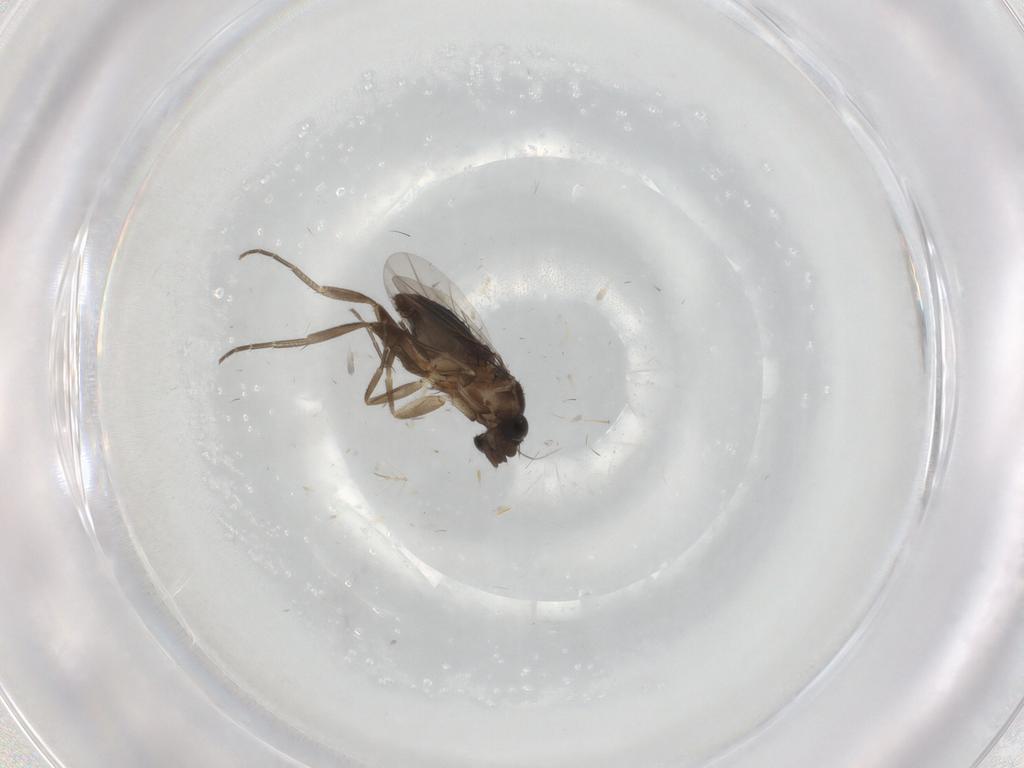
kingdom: Animalia
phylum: Arthropoda
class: Insecta
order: Diptera
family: Phoridae
